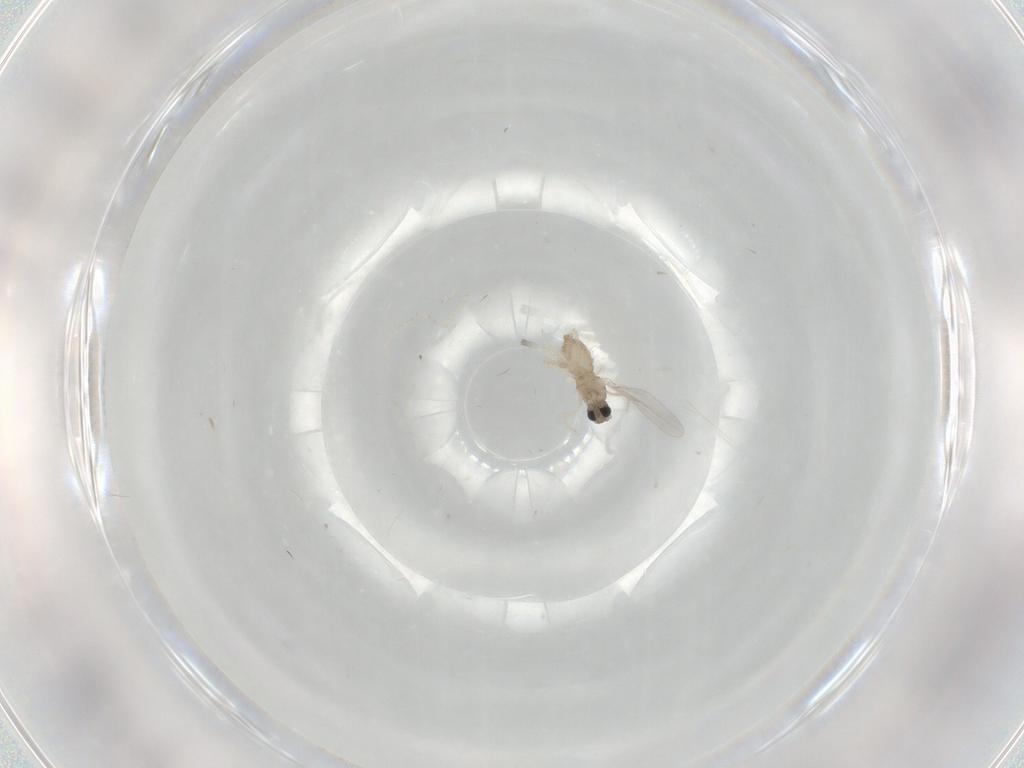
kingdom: Animalia
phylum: Arthropoda
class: Insecta
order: Diptera
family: Cecidomyiidae
